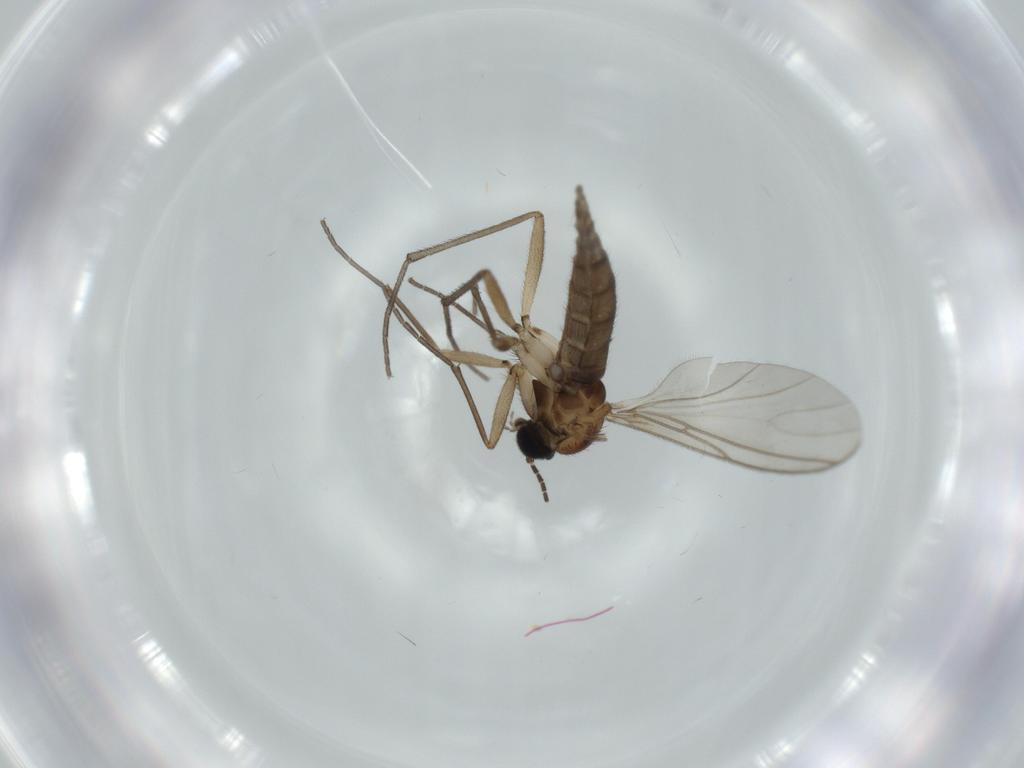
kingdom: Animalia
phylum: Arthropoda
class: Insecta
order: Diptera
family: Sciaridae
